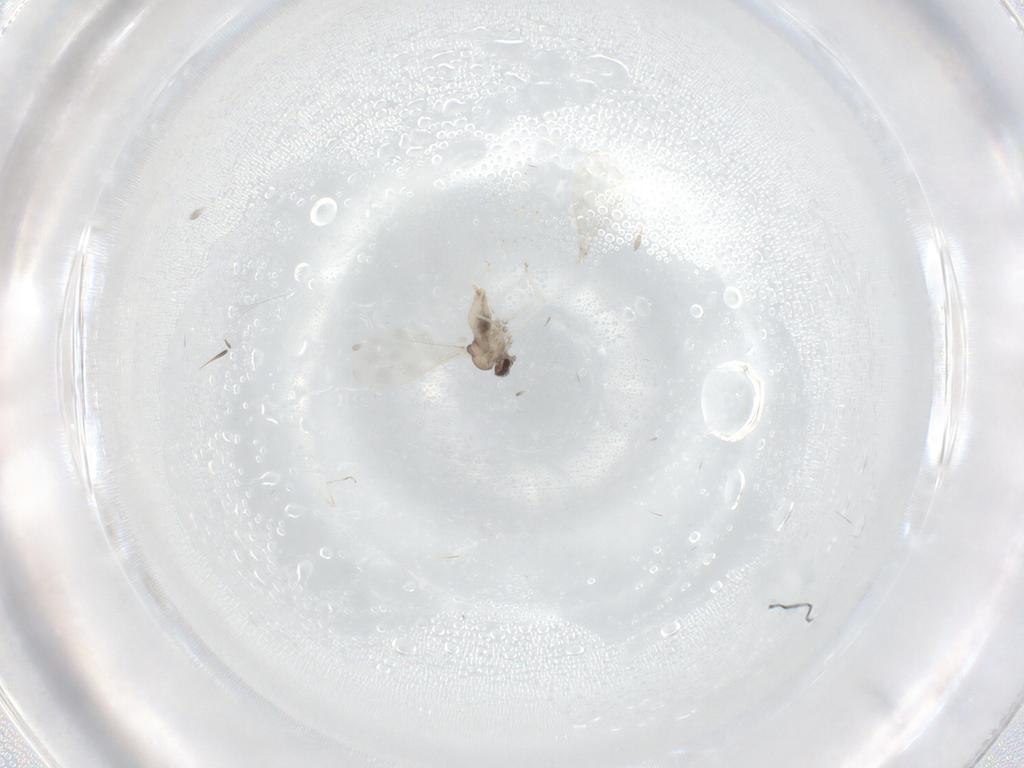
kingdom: Animalia
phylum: Arthropoda
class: Insecta
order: Diptera
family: Cecidomyiidae
